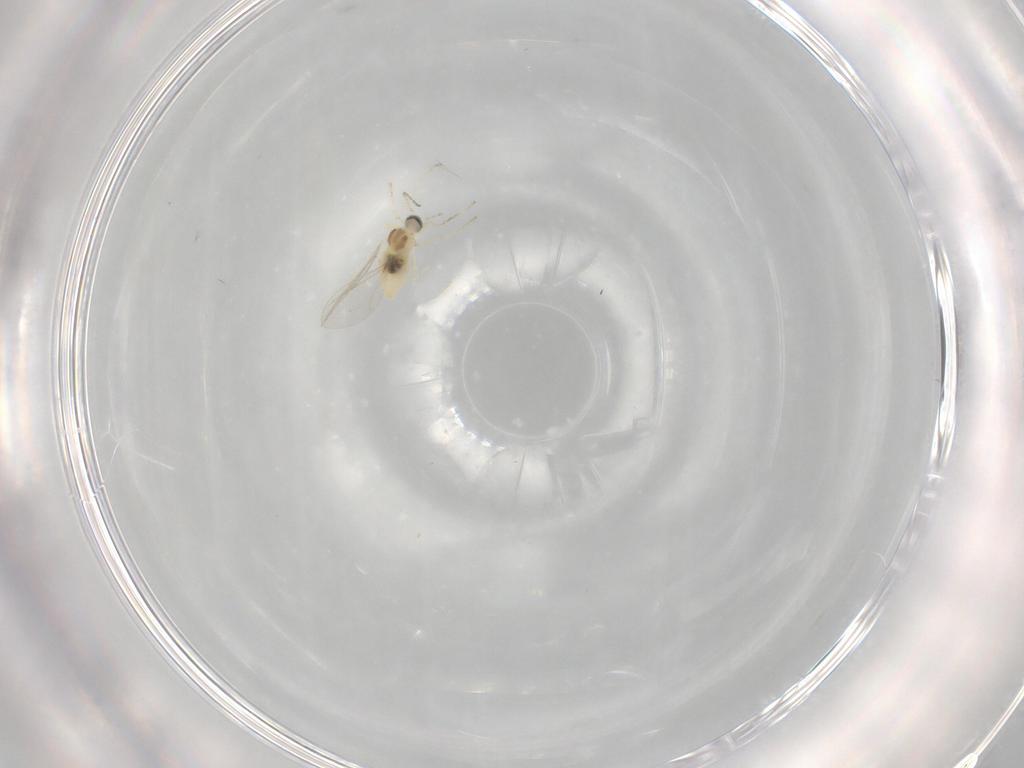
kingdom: Animalia
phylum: Arthropoda
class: Insecta
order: Diptera
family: Cecidomyiidae
